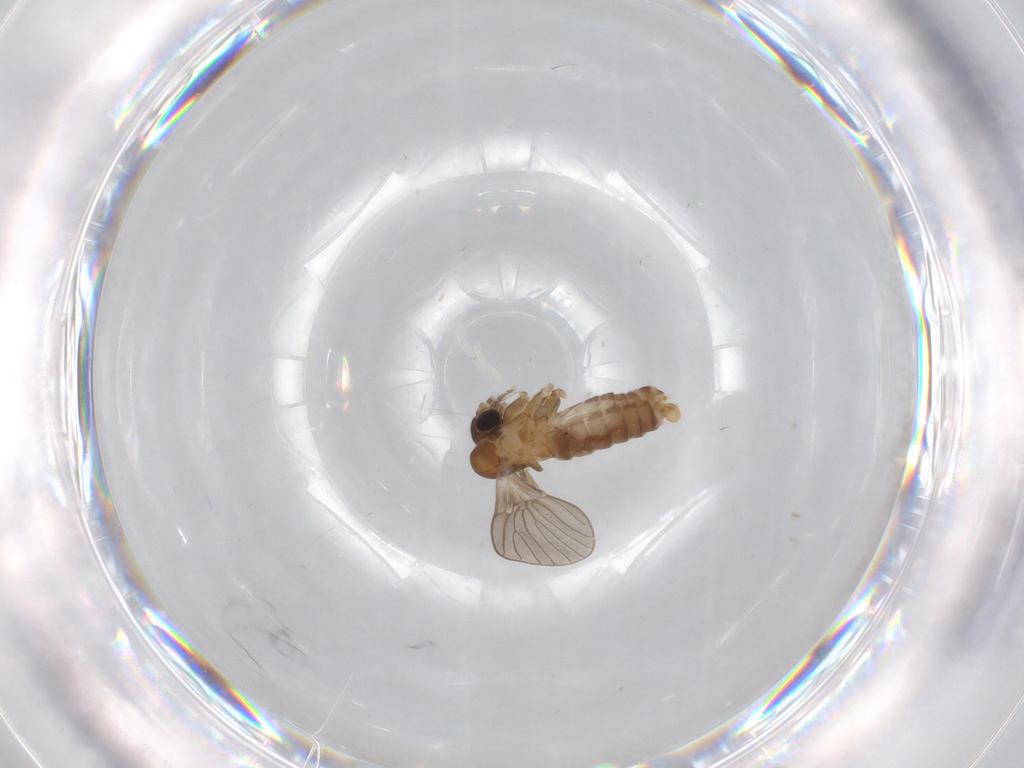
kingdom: Animalia
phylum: Arthropoda
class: Insecta
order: Diptera
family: Psychodidae
